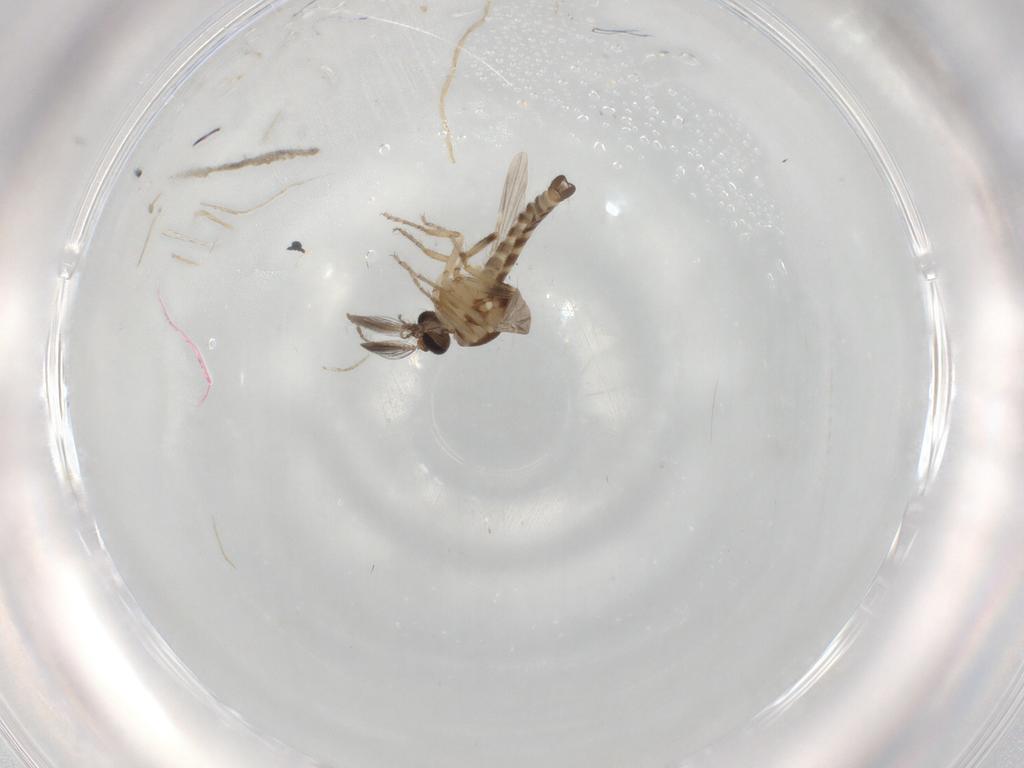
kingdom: Animalia
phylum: Arthropoda
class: Insecta
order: Diptera
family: Ceratopogonidae
